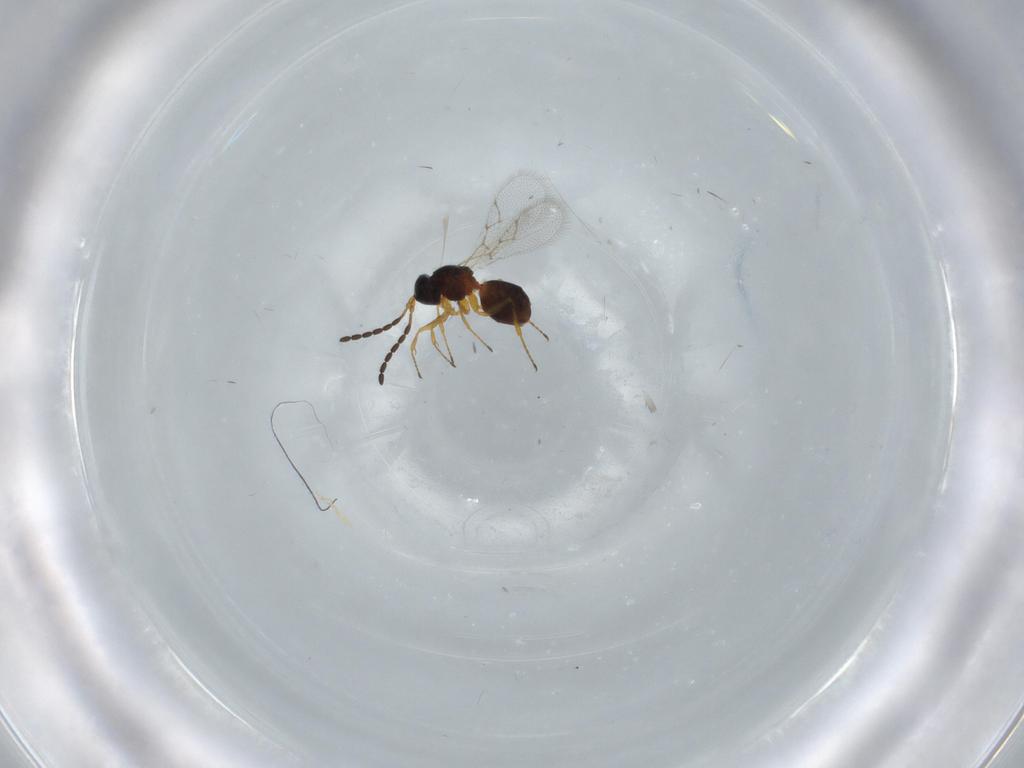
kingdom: Animalia
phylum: Arthropoda
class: Insecta
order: Hymenoptera
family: Figitidae
